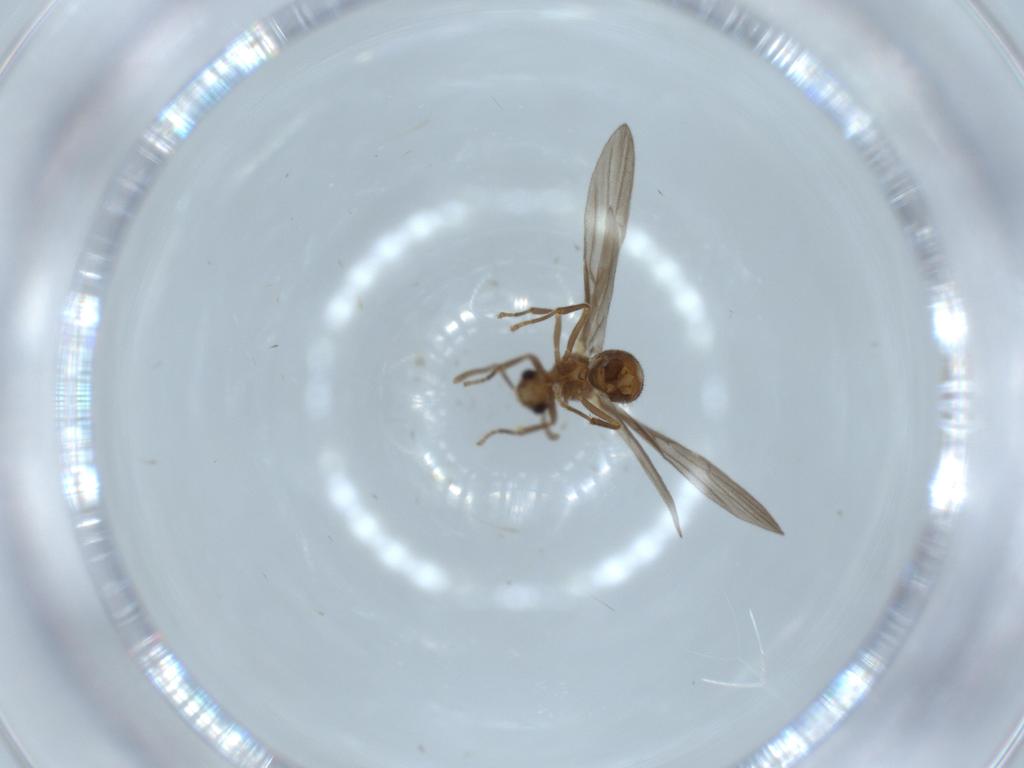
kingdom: Animalia
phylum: Arthropoda
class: Insecta
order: Hymenoptera
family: Formicidae
